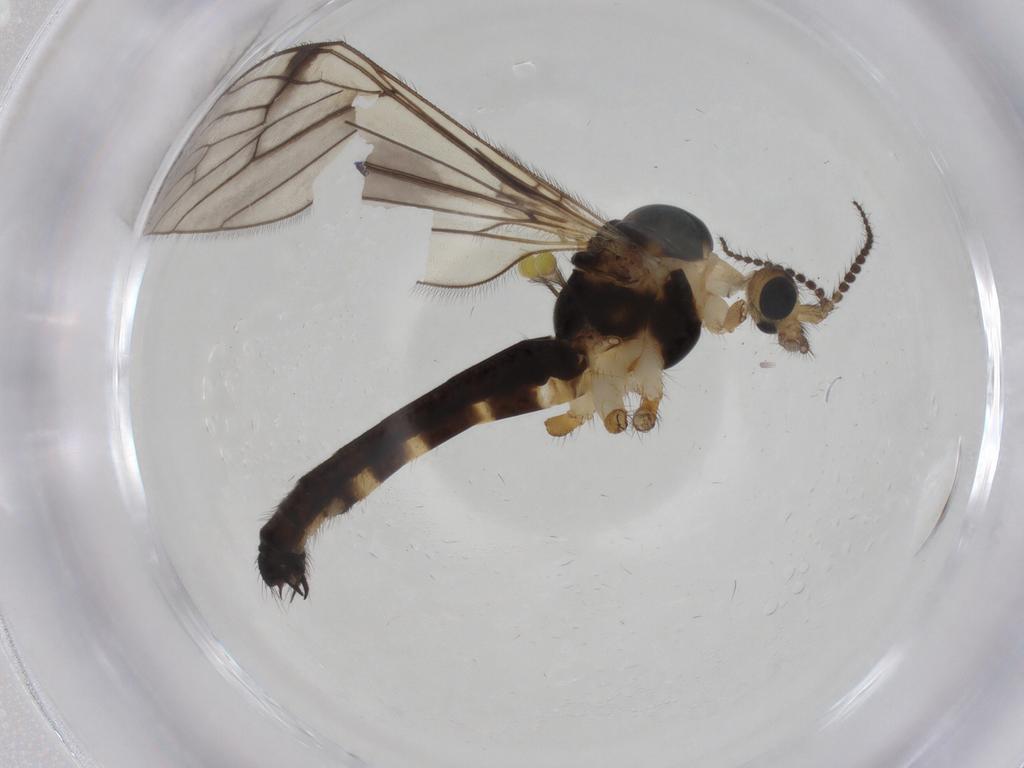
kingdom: Animalia
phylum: Arthropoda
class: Insecta
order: Diptera
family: Limoniidae
